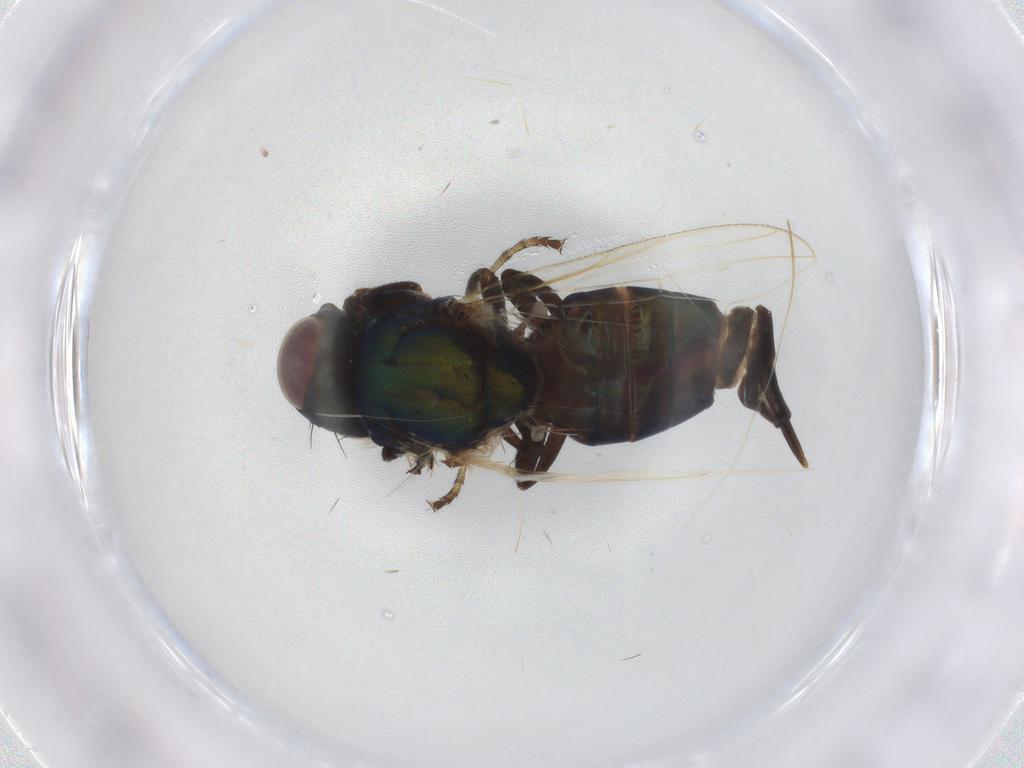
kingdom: Animalia
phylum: Arthropoda
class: Insecta
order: Diptera
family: Ulidiidae
